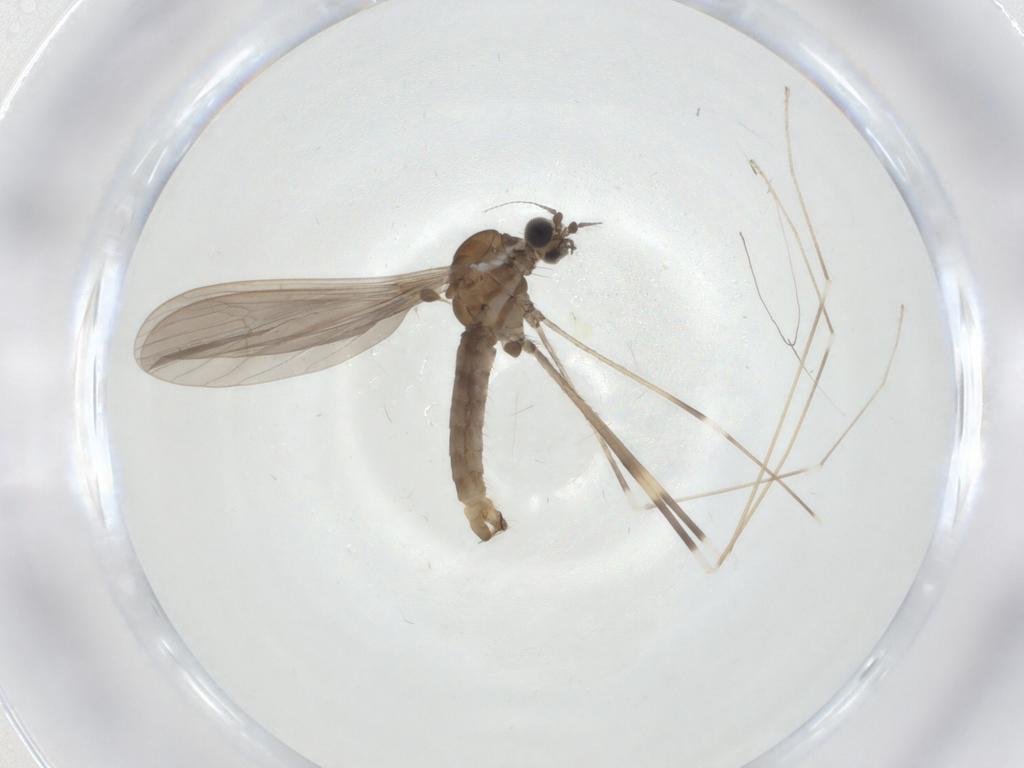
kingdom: Animalia
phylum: Arthropoda
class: Insecta
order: Diptera
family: Limoniidae
